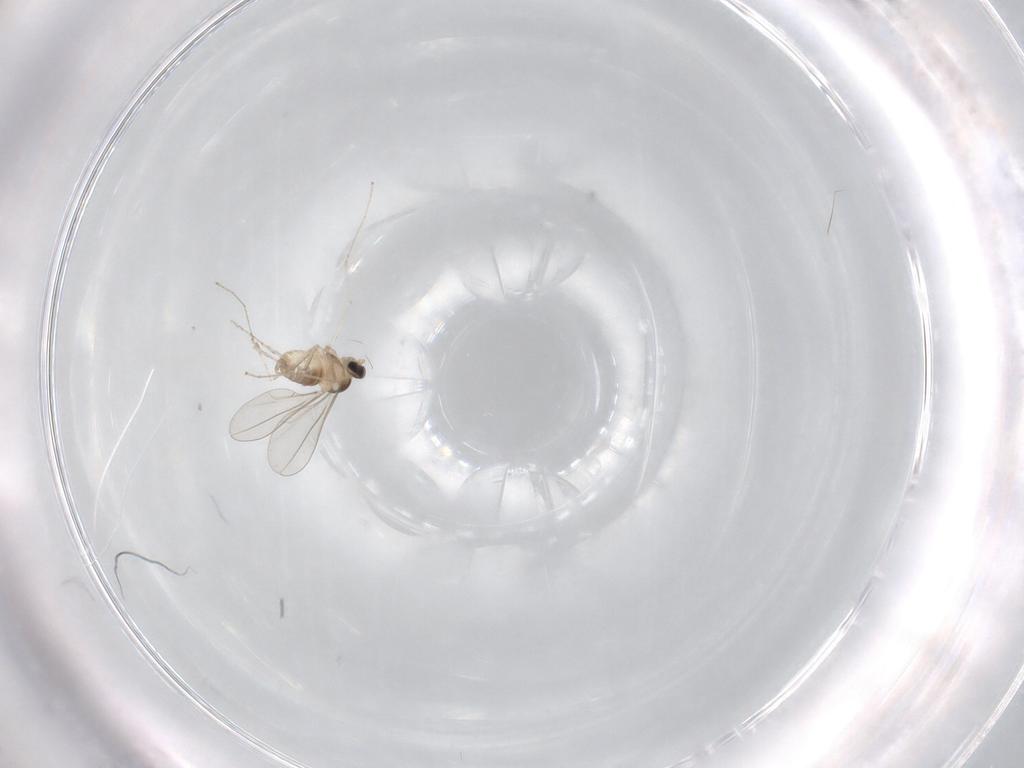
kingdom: Animalia
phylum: Arthropoda
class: Insecta
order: Diptera
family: Cecidomyiidae
